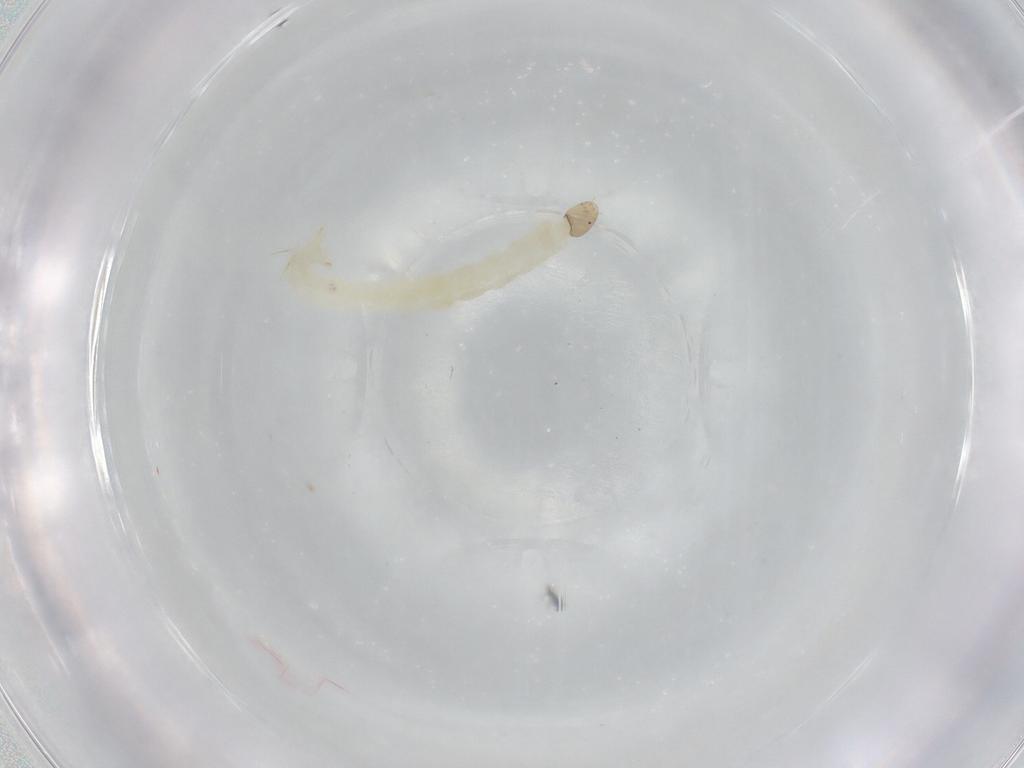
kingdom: Animalia
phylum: Arthropoda
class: Insecta
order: Diptera
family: Chironomidae
